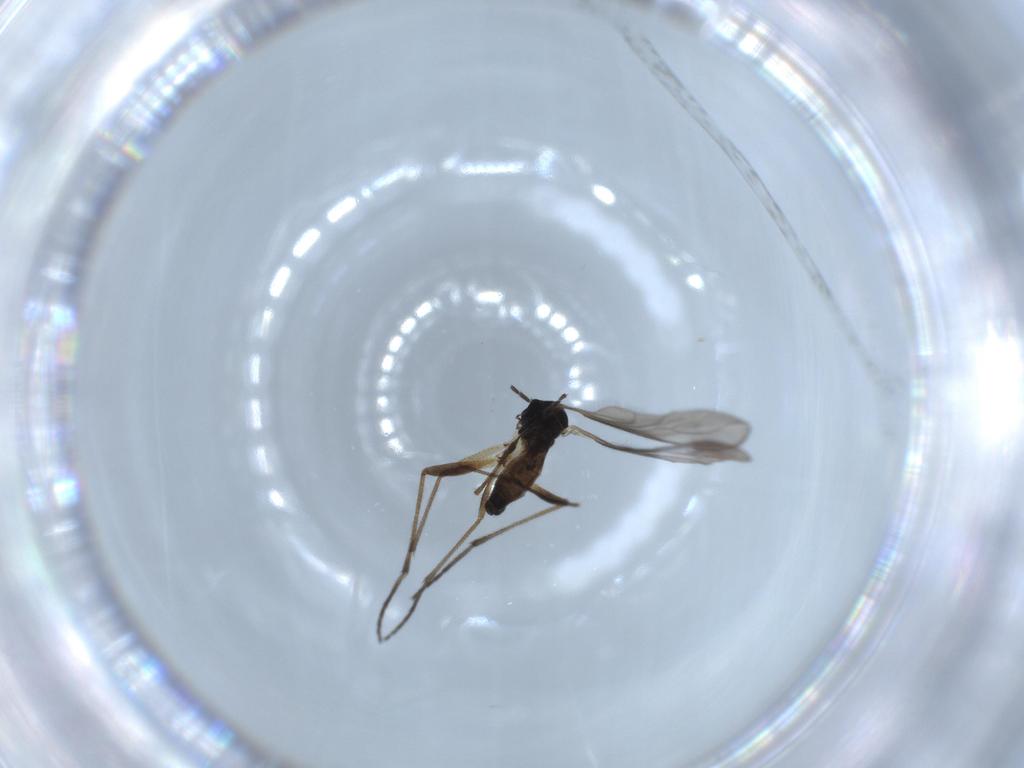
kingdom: Animalia
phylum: Arthropoda
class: Insecta
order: Diptera
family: Sciaridae
